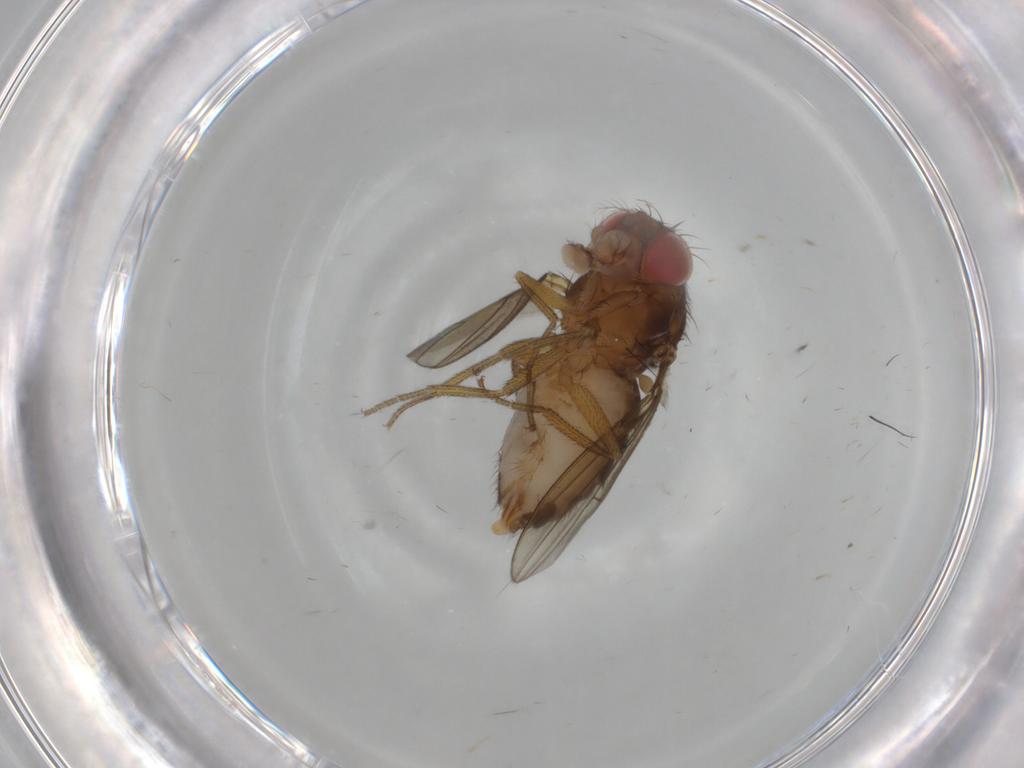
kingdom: Animalia
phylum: Arthropoda
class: Insecta
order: Diptera
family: Drosophilidae
